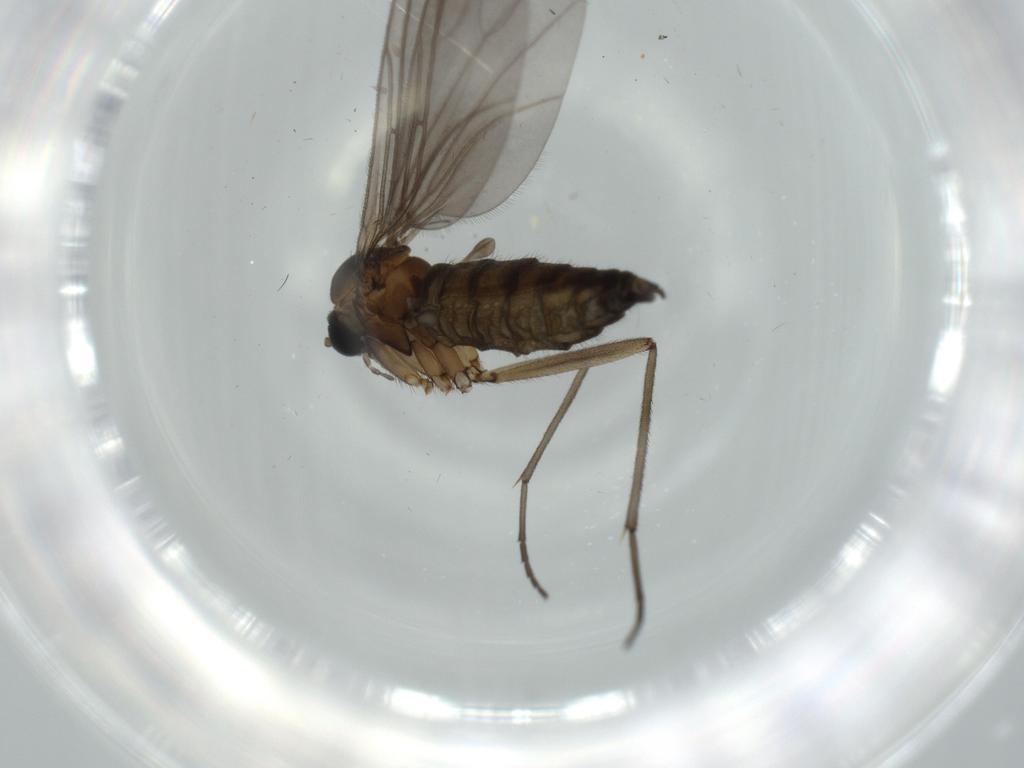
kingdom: Animalia
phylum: Arthropoda
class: Insecta
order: Diptera
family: Sciaridae
